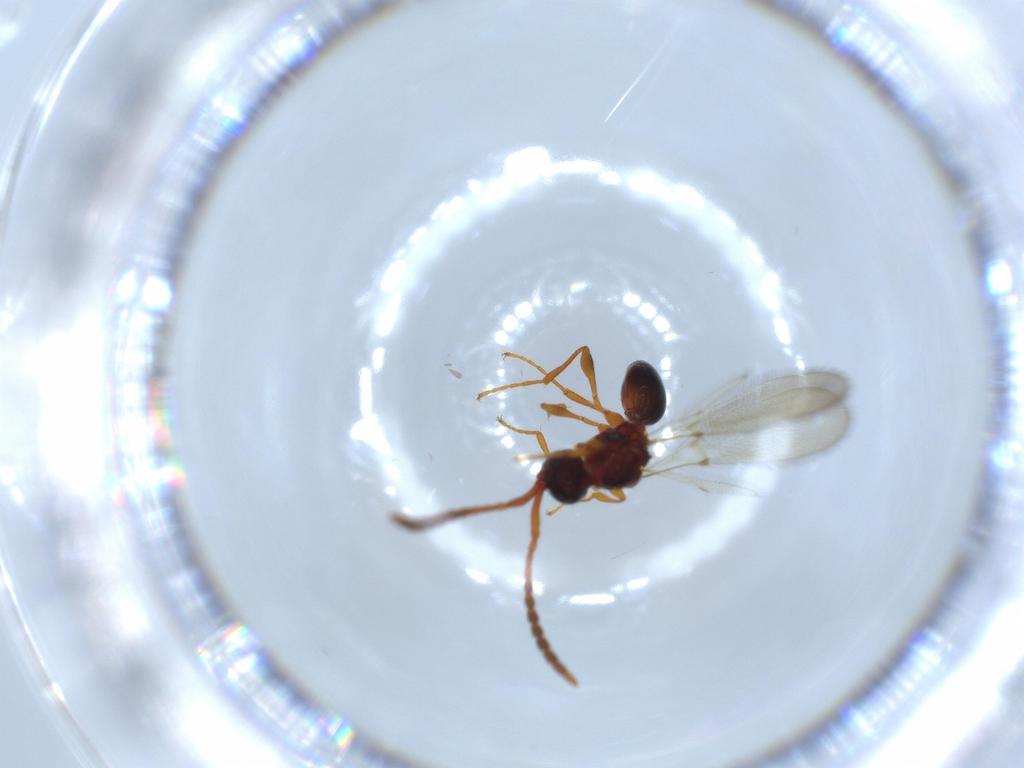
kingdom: Animalia
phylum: Arthropoda
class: Insecta
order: Hymenoptera
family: Diapriidae
